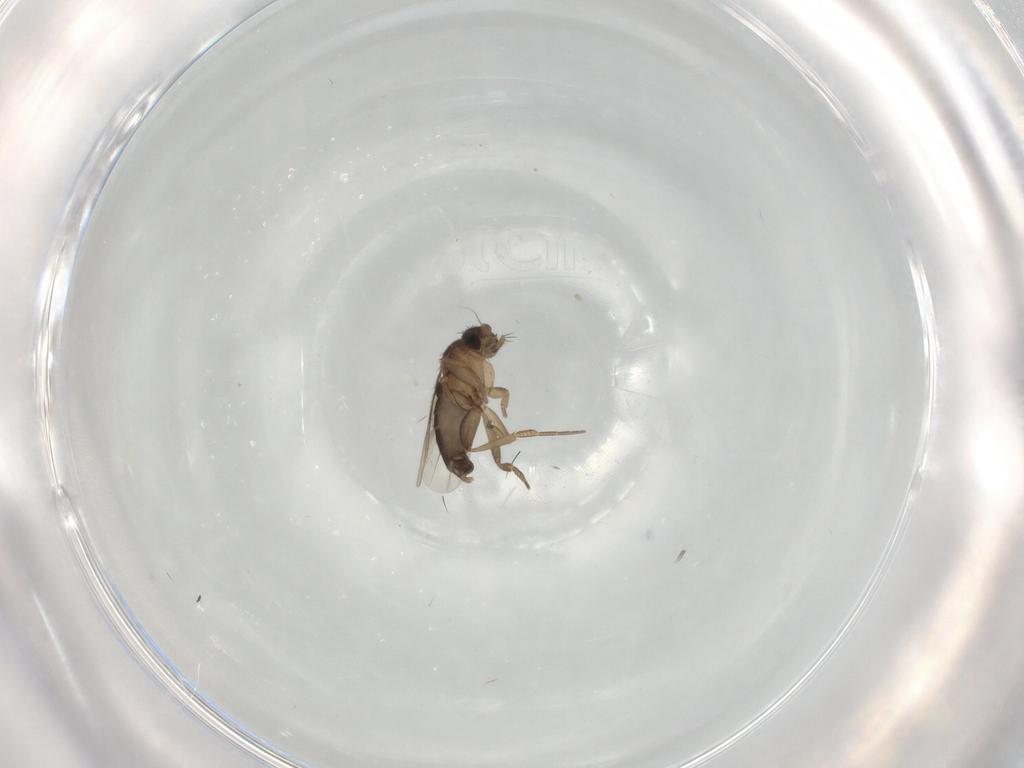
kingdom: Animalia
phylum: Arthropoda
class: Insecta
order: Diptera
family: Phoridae
